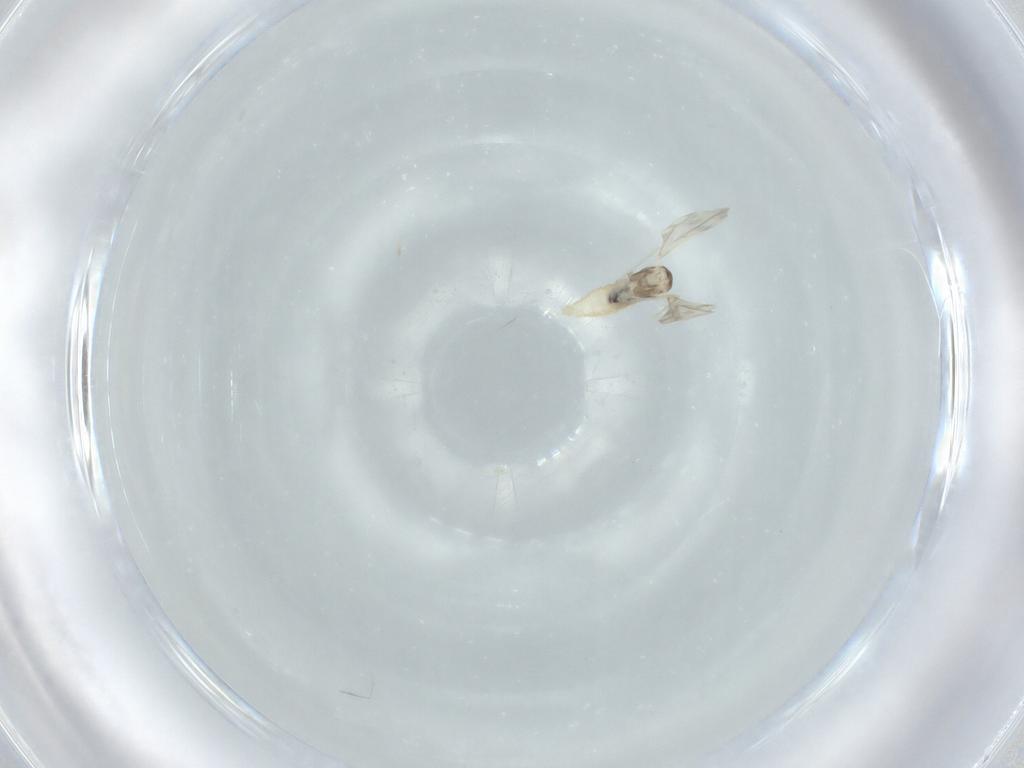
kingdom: Animalia
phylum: Arthropoda
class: Insecta
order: Diptera
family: Cecidomyiidae
